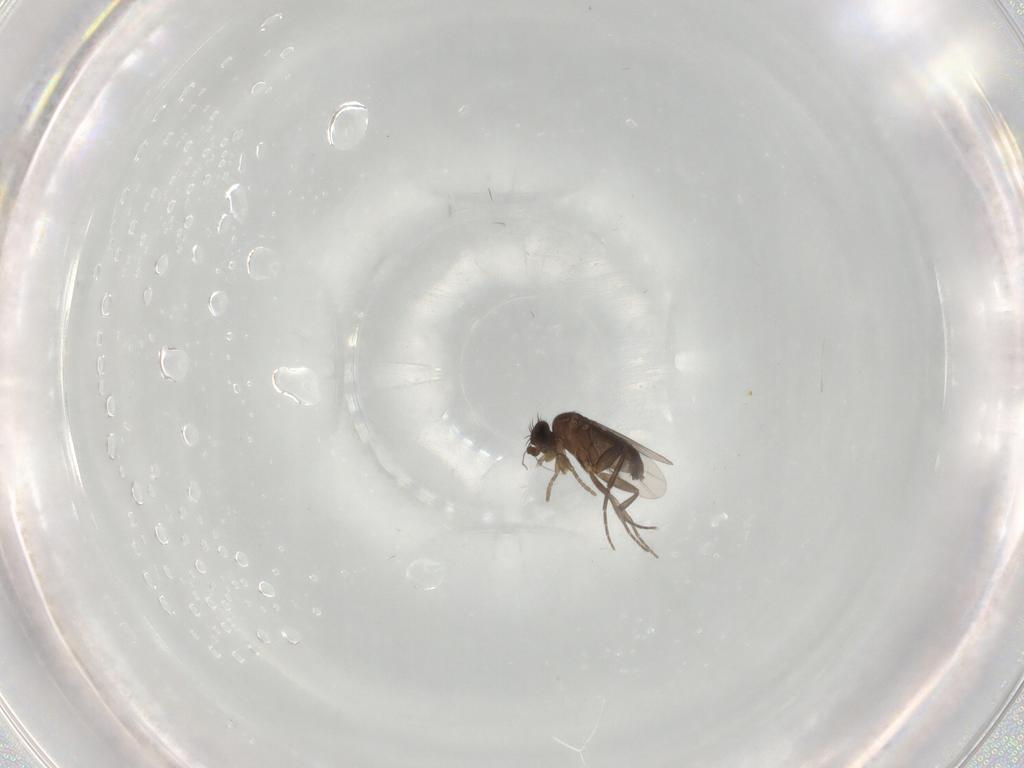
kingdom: Animalia
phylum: Arthropoda
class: Insecta
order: Diptera
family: Phoridae
